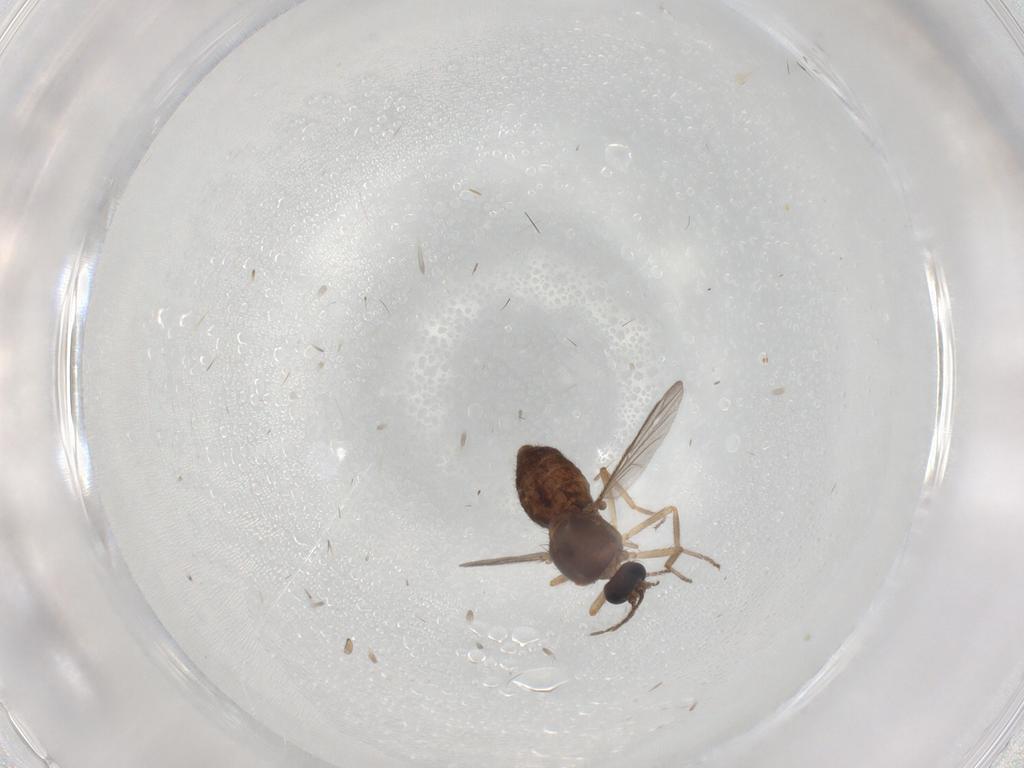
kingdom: Animalia
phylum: Arthropoda
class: Insecta
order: Diptera
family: Ceratopogonidae
